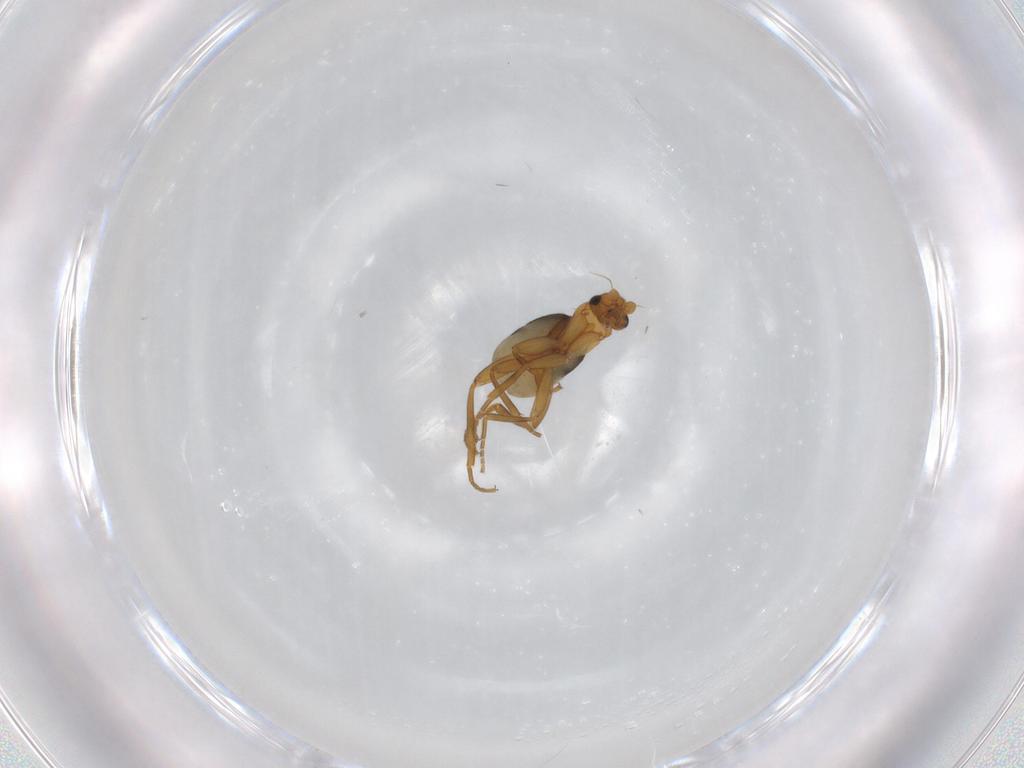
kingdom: Animalia
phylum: Arthropoda
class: Insecta
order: Diptera
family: Phoridae
